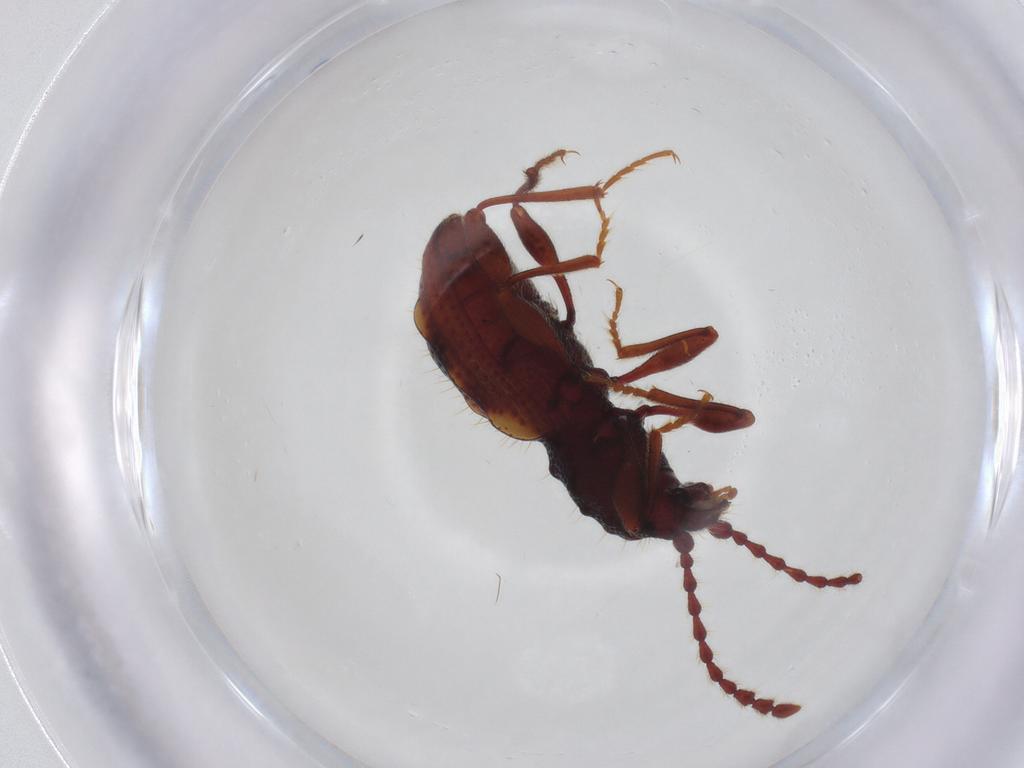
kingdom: Animalia
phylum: Arthropoda
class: Insecta
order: Coleoptera
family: Ptinidae
